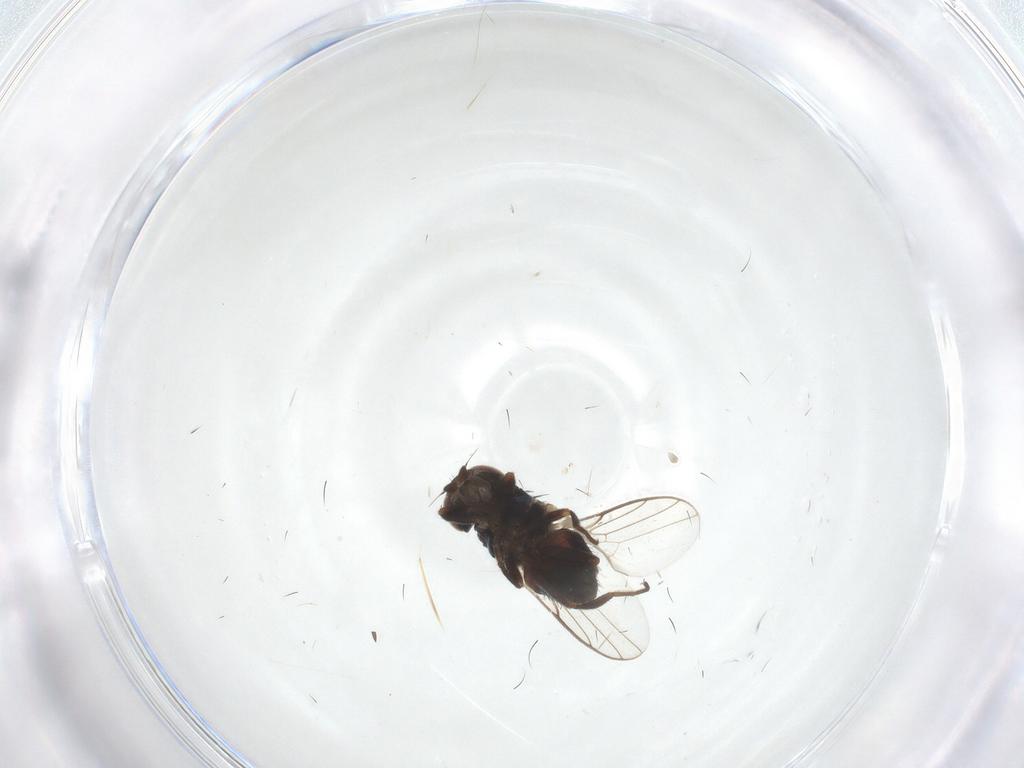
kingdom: Animalia
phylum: Arthropoda
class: Insecta
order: Diptera
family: Chloropidae
